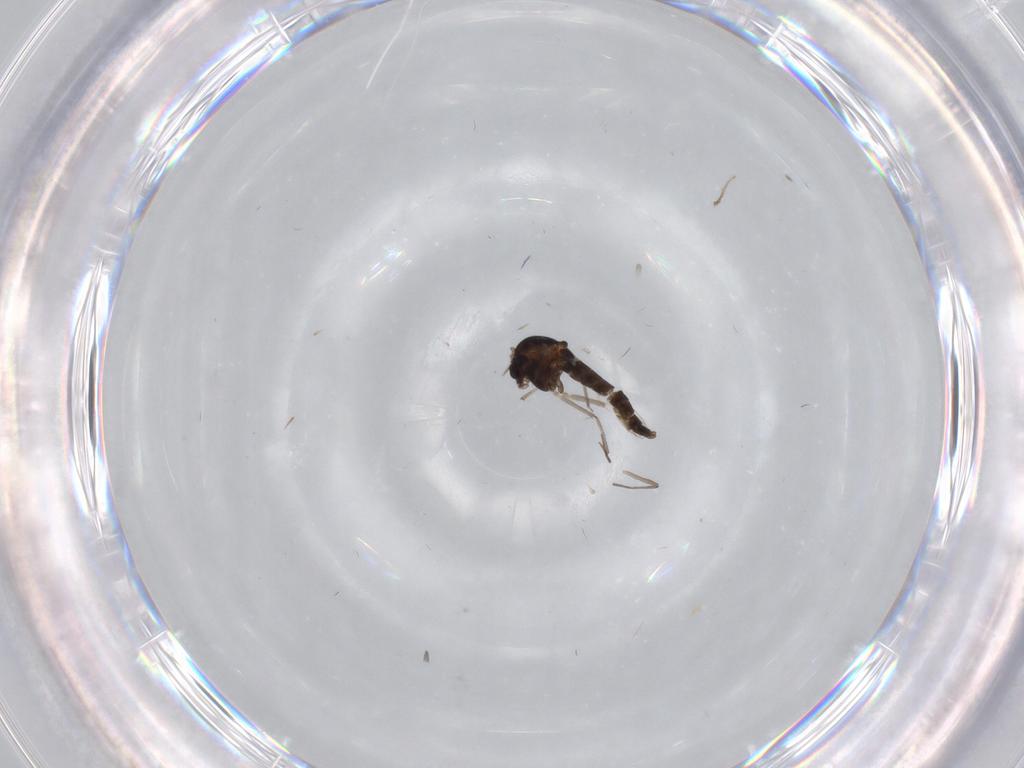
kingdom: Animalia
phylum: Arthropoda
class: Insecta
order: Diptera
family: Chironomidae
